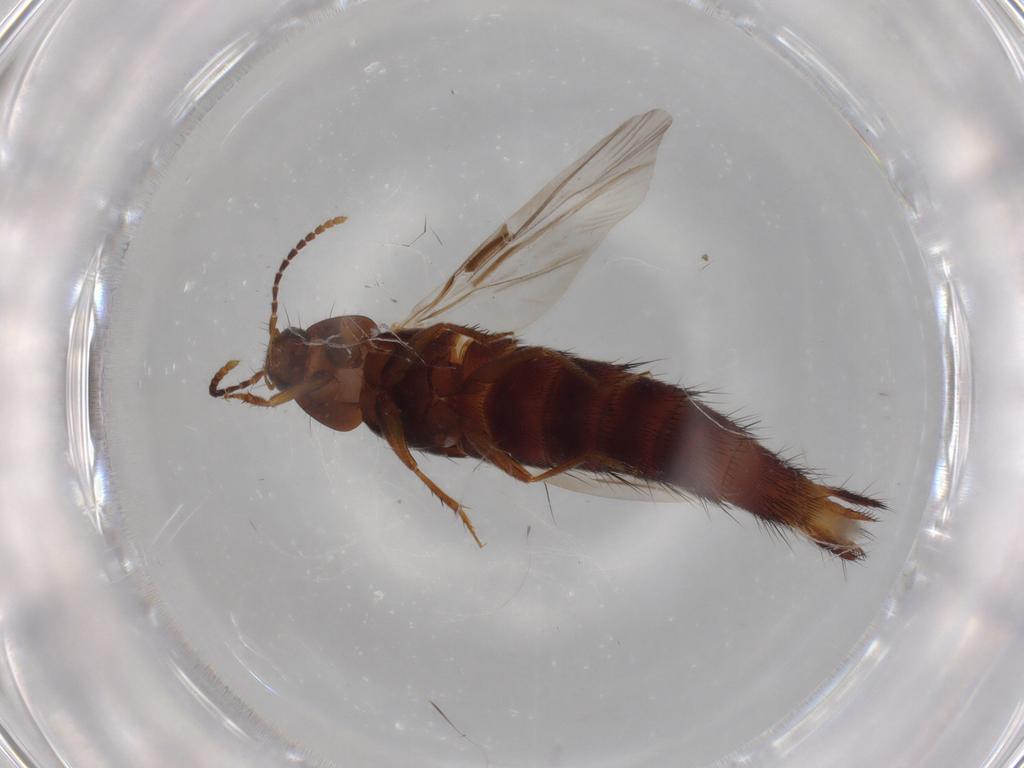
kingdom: Animalia
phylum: Arthropoda
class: Insecta
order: Coleoptera
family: Staphylinidae
